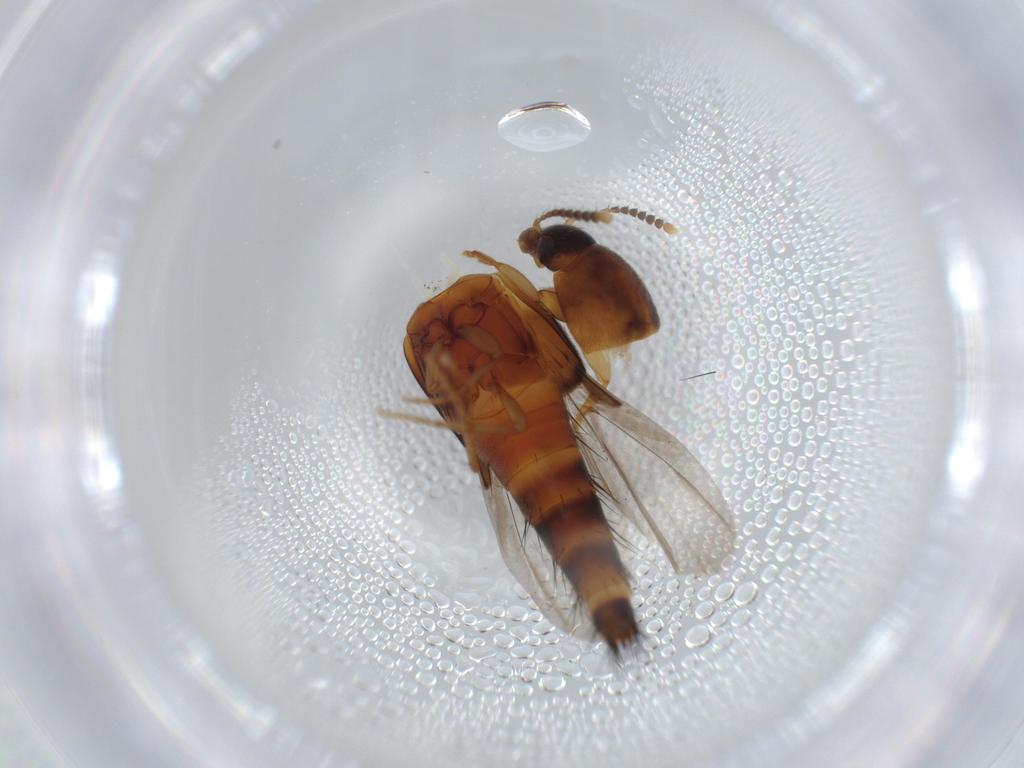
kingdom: Animalia
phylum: Arthropoda
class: Insecta
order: Coleoptera
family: Staphylinidae
